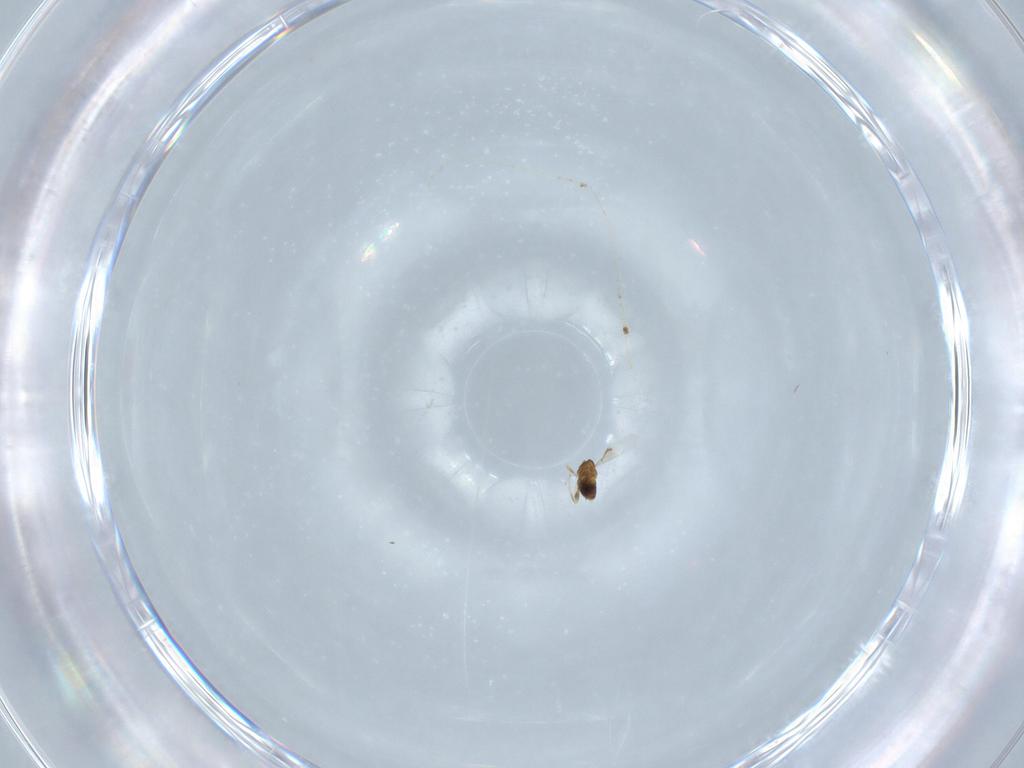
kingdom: Animalia
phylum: Arthropoda
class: Insecta
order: Hymenoptera
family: Trichogrammatidae
